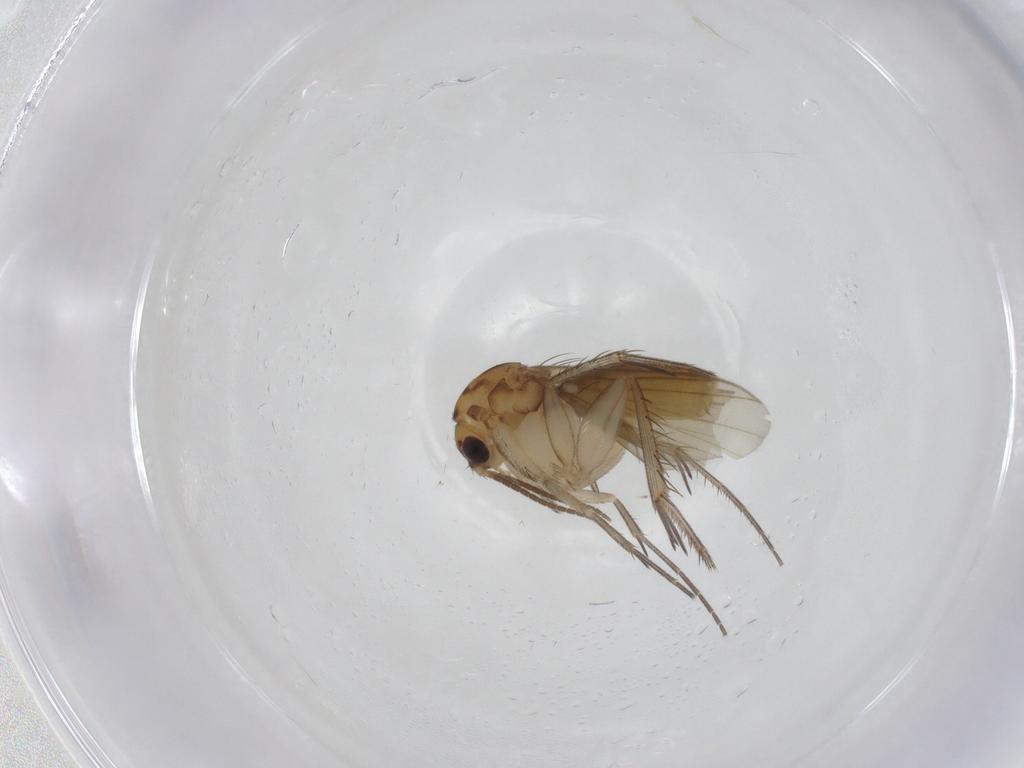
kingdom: Animalia
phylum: Arthropoda
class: Insecta
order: Diptera
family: Mycetophilidae
